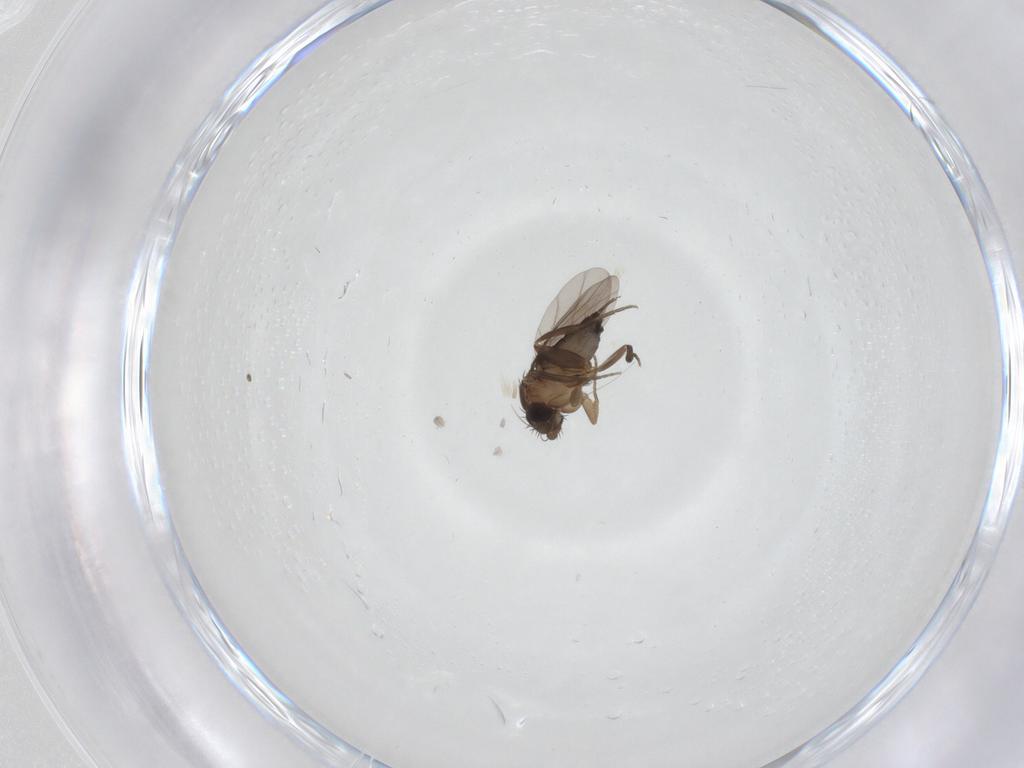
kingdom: Animalia
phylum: Arthropoda
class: Insecta
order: Diptera
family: Phoridae
